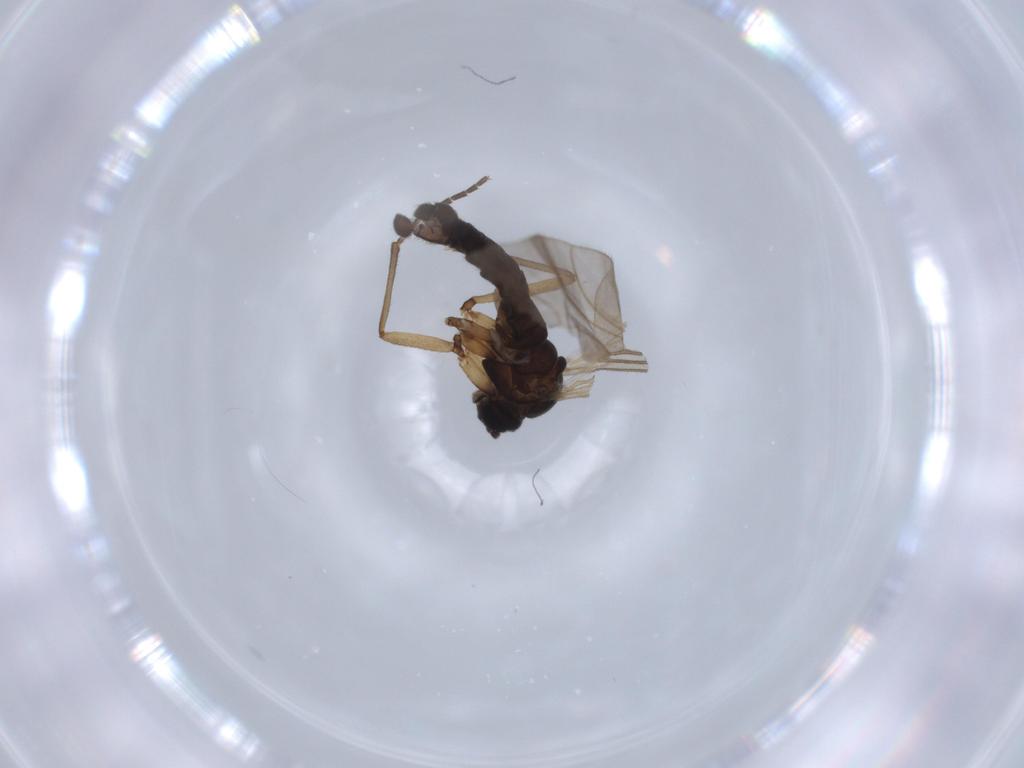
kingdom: Animalia
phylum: Arthropoda
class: Insecta
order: Diptera
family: Sciaridae
